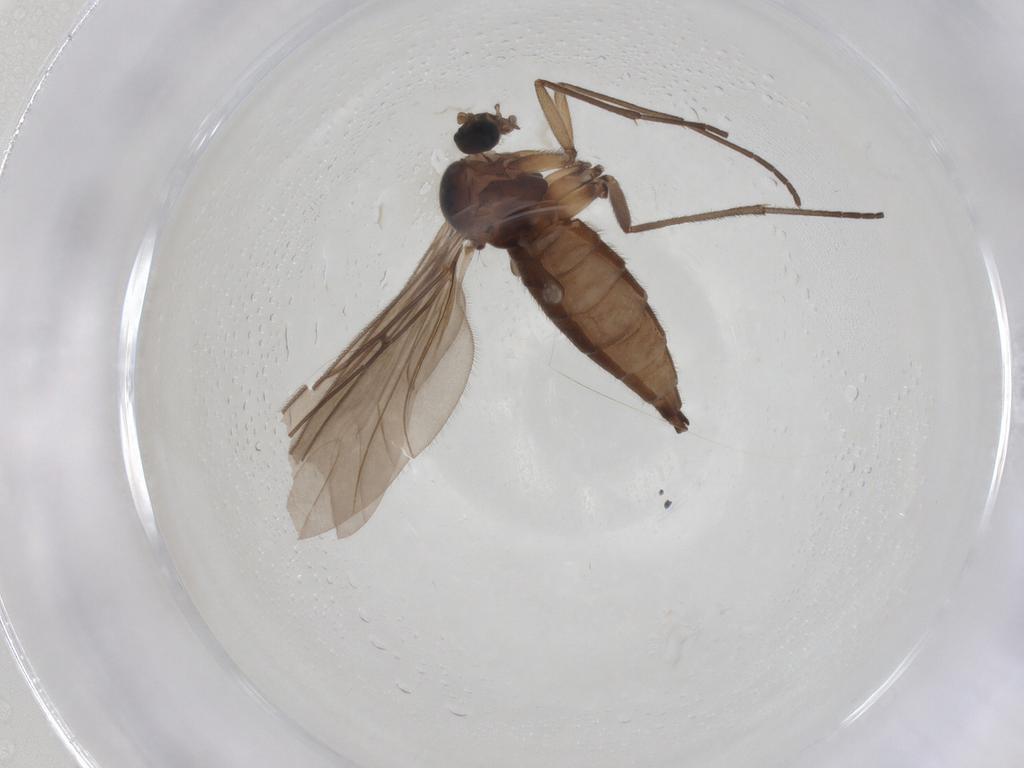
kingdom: Animalia
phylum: Arthropoda
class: Insecta
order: Diptera
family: Sciaridae
